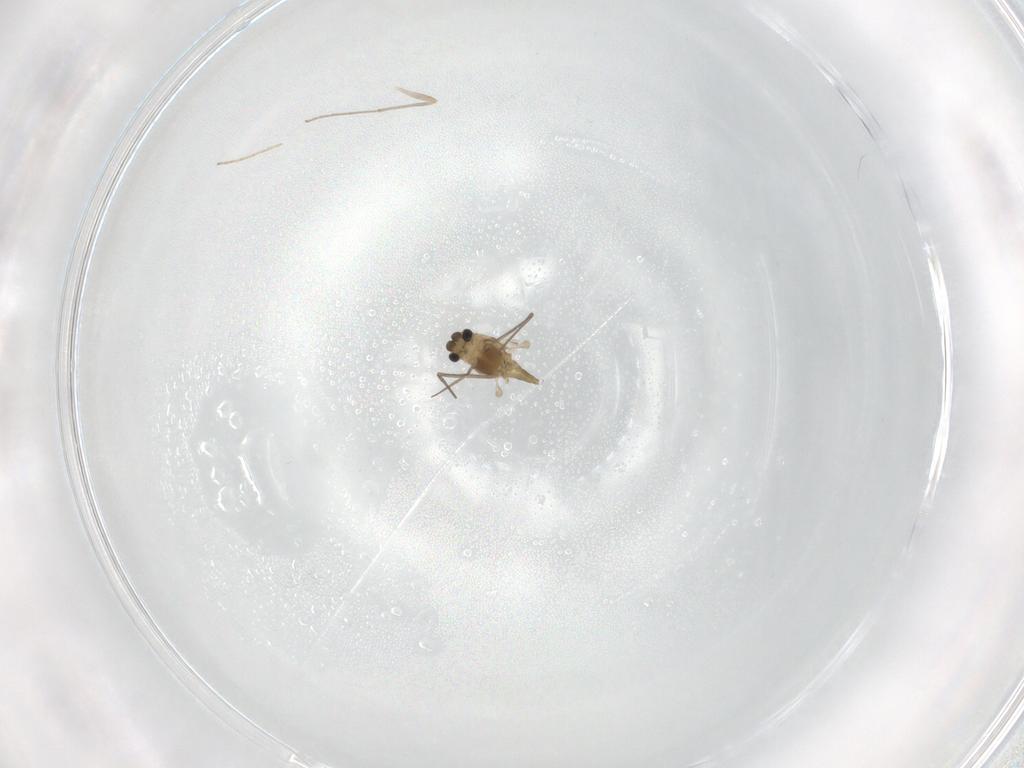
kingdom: Animalia
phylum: Arthropoda
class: Insecta
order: Diptera
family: Chironomidae
